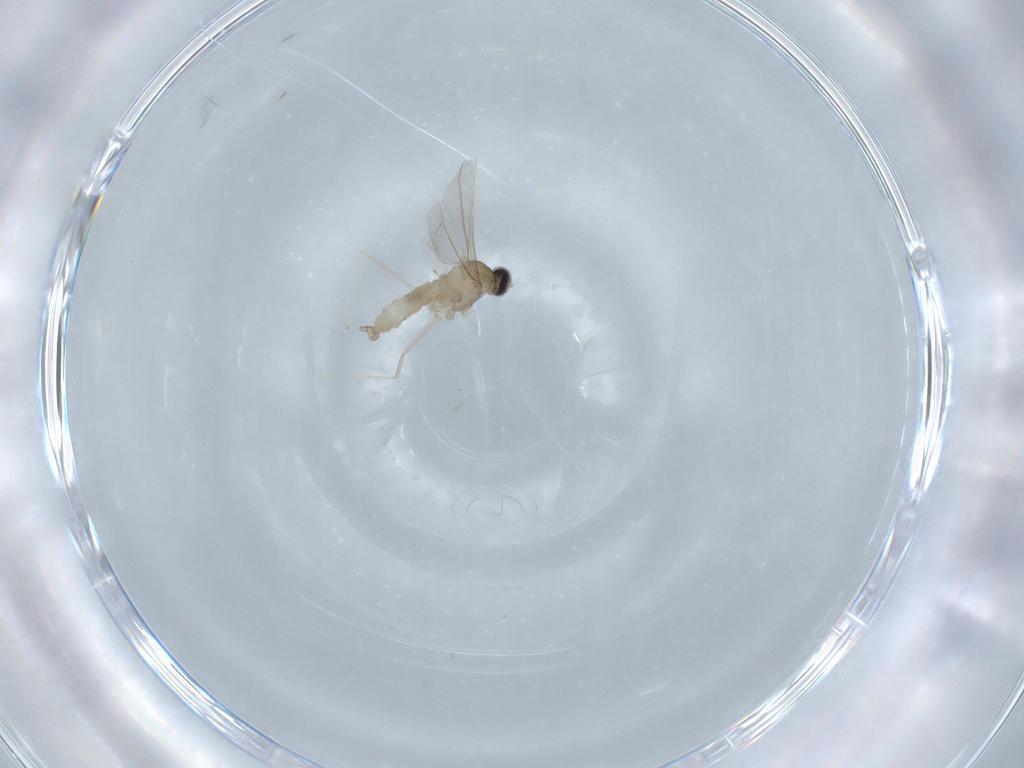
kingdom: Animalia
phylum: Arthropoda
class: Insecta
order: Diptera
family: Cecidomyiidae
